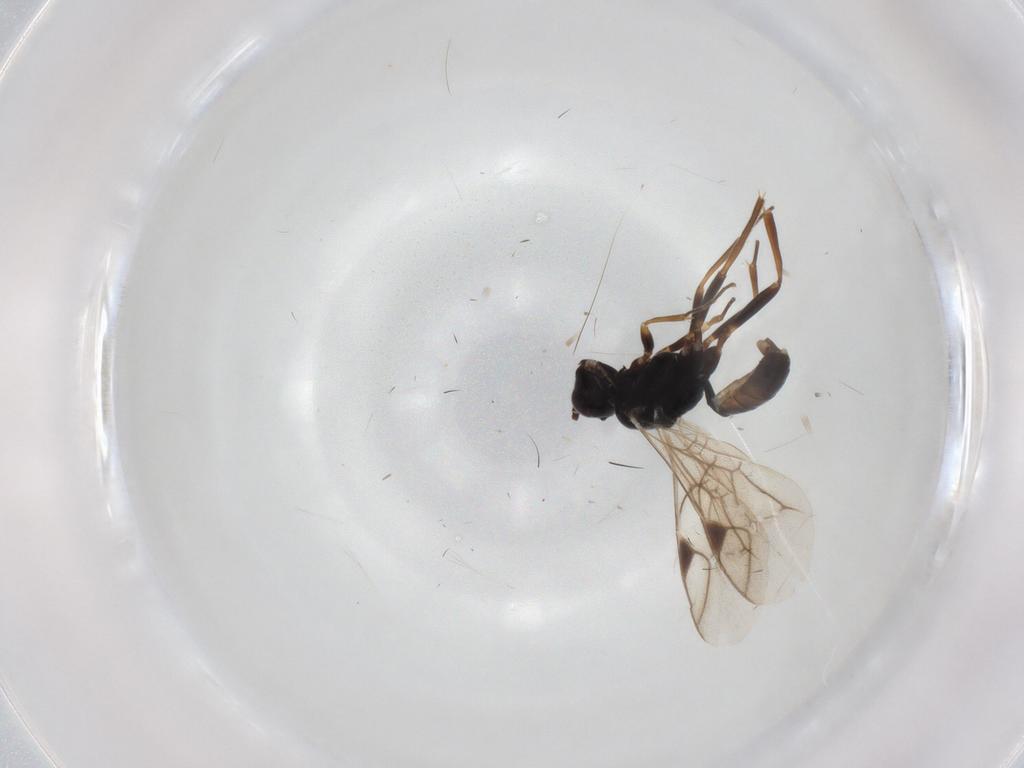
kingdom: Animalia
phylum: Arthropoda
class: Insecta
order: Hymenoptera
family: Ichneumonidae
